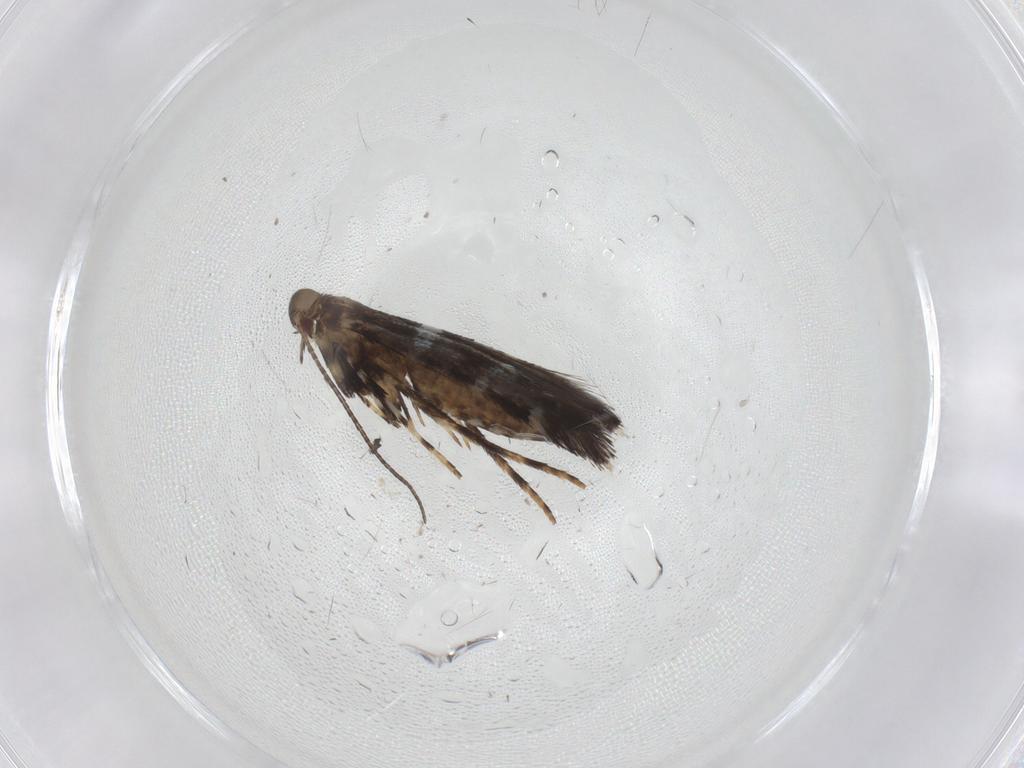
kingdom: Animalia
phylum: Arthropoda
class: Insecta
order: Lepidoptera
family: Gracillariidae
